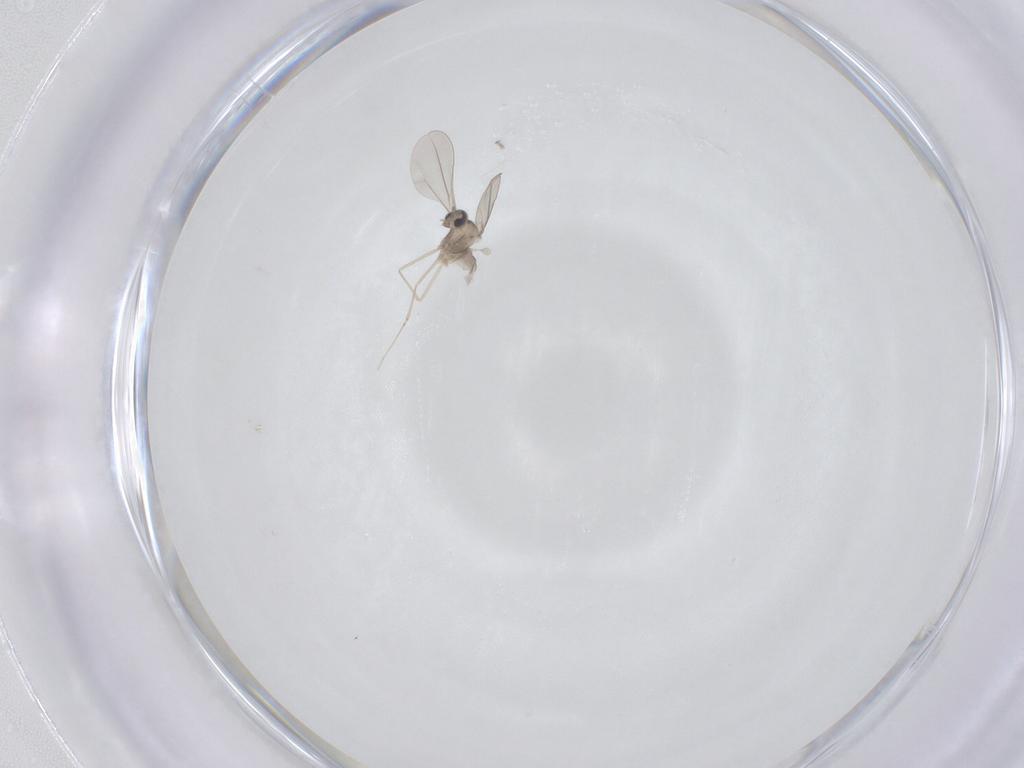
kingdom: Animalia
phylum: Arthropoda
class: Insecta
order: Diptera
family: Cecidomyiidae
